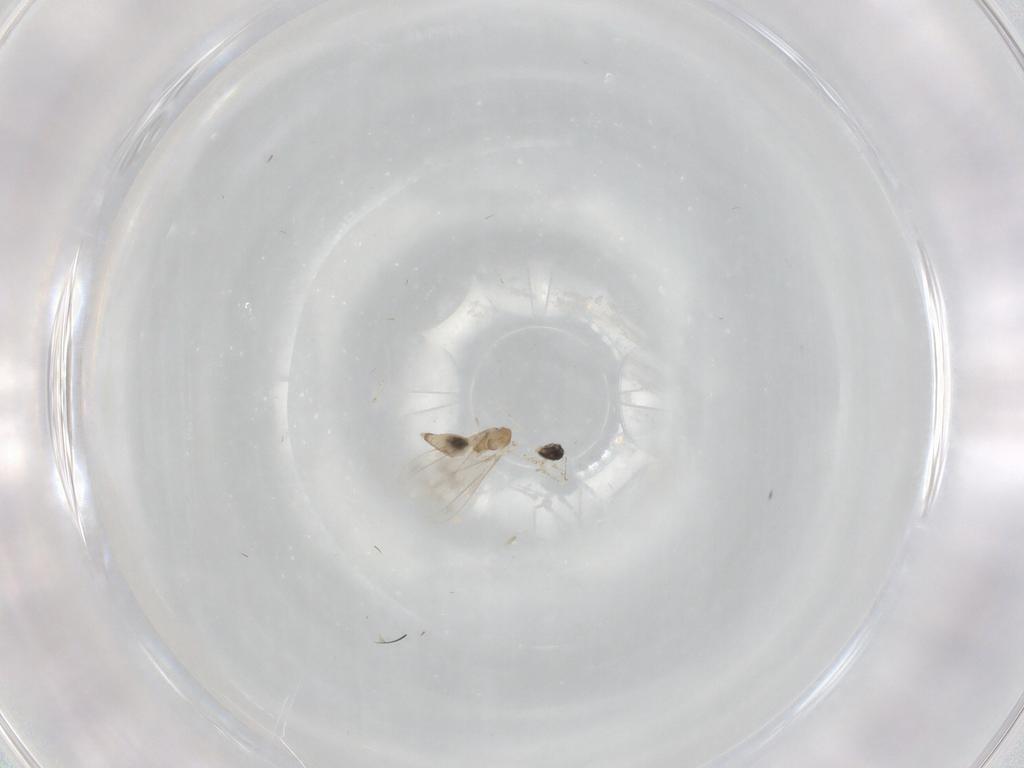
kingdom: Animalia
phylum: Arthropoda
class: Insecta
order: Diptera
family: Cecidomyiidae
